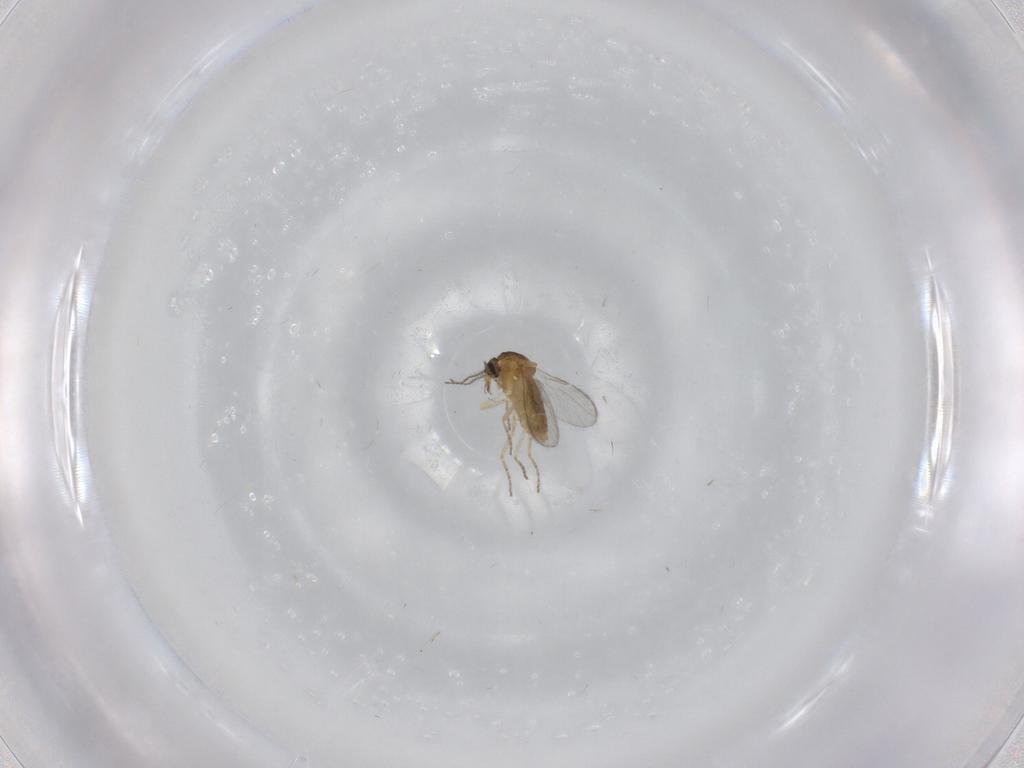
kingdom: Animalia
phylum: Arthropoda
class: Insecta
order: Diptera
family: Ceratopogonidae
